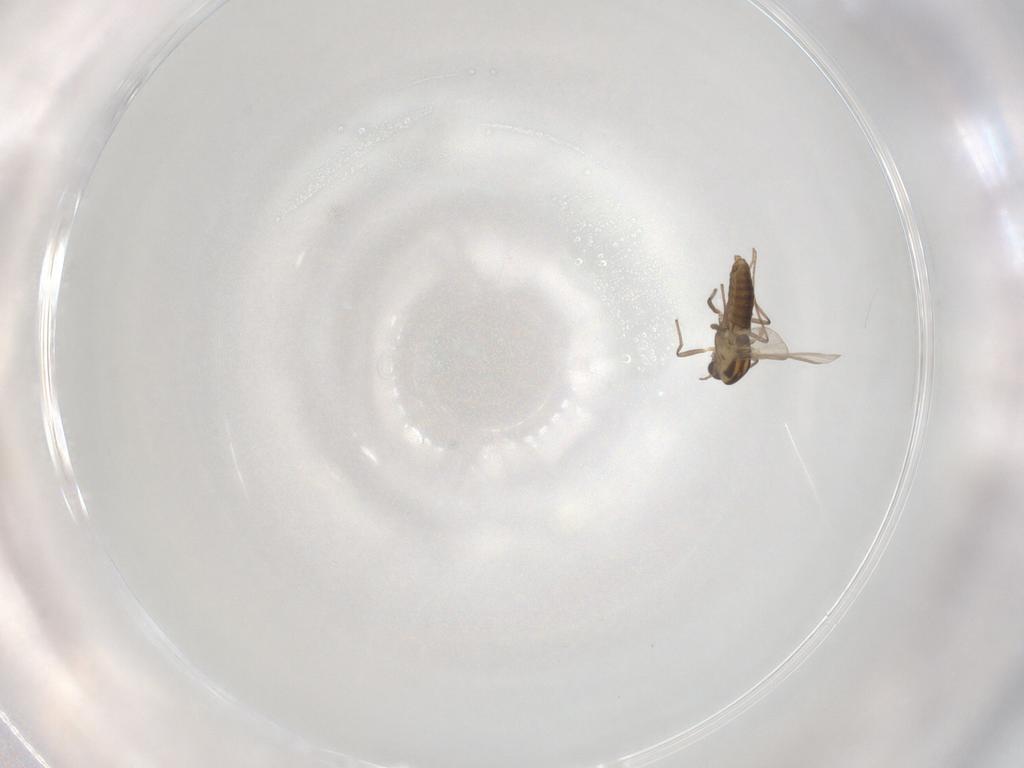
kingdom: Animalia
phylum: Arthropoda
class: Insecta
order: Diptera
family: Chironomidae
